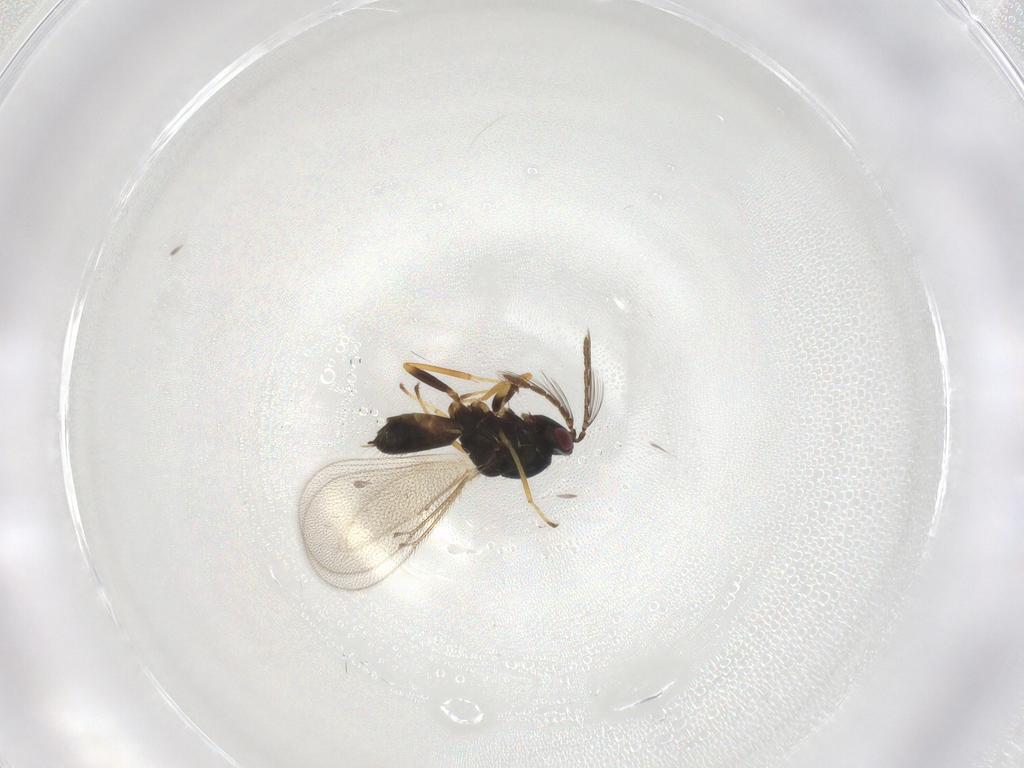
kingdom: Animalia
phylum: Arthropoda
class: Insecta
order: Hymenoptera
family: Eulophidae
